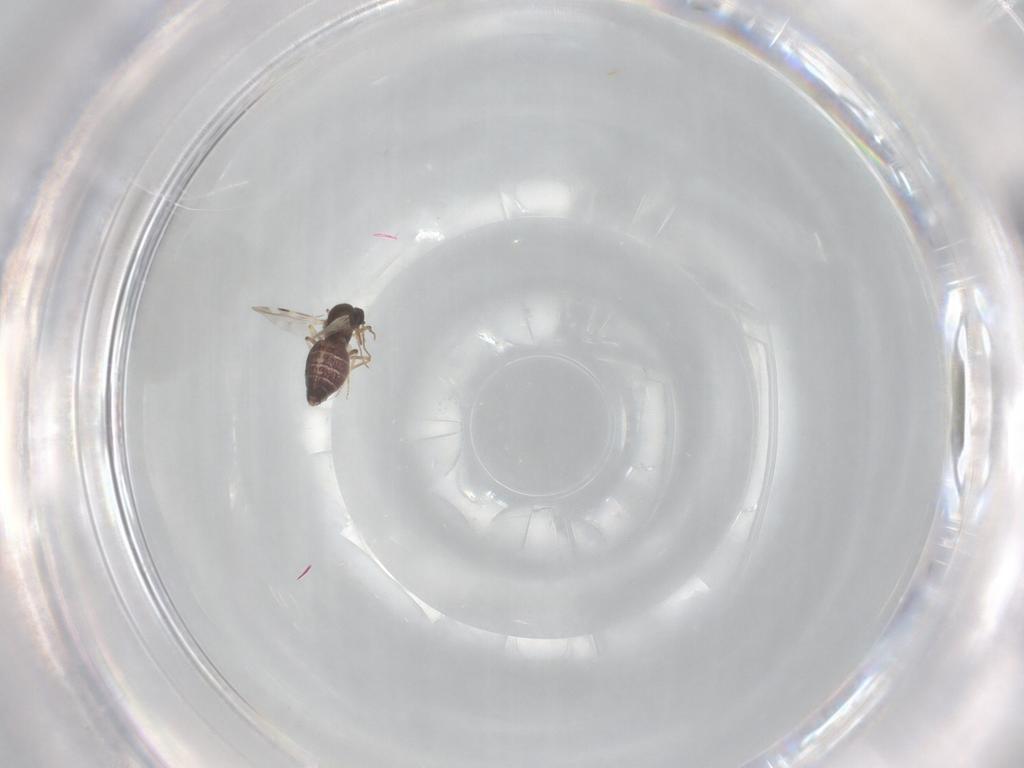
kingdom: Animalia
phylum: Arthropoda
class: Insecta
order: Diptera
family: Sciaridae
